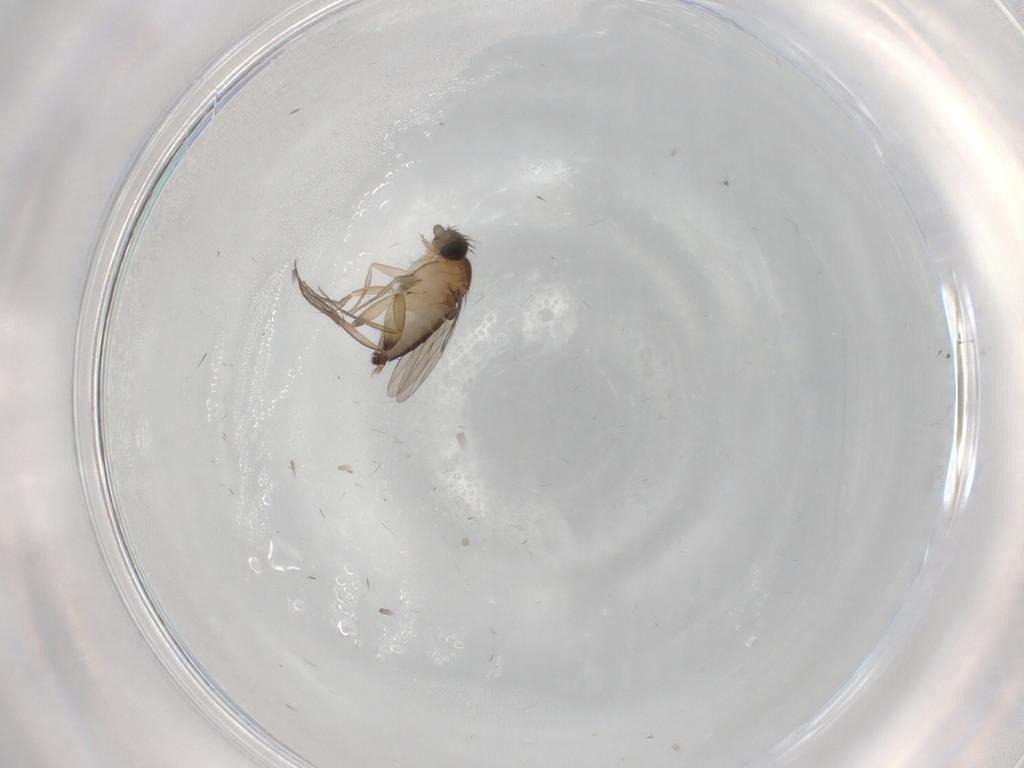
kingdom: Animalia
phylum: Arthropoda
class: Insecta
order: Diptera
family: Phoridae
